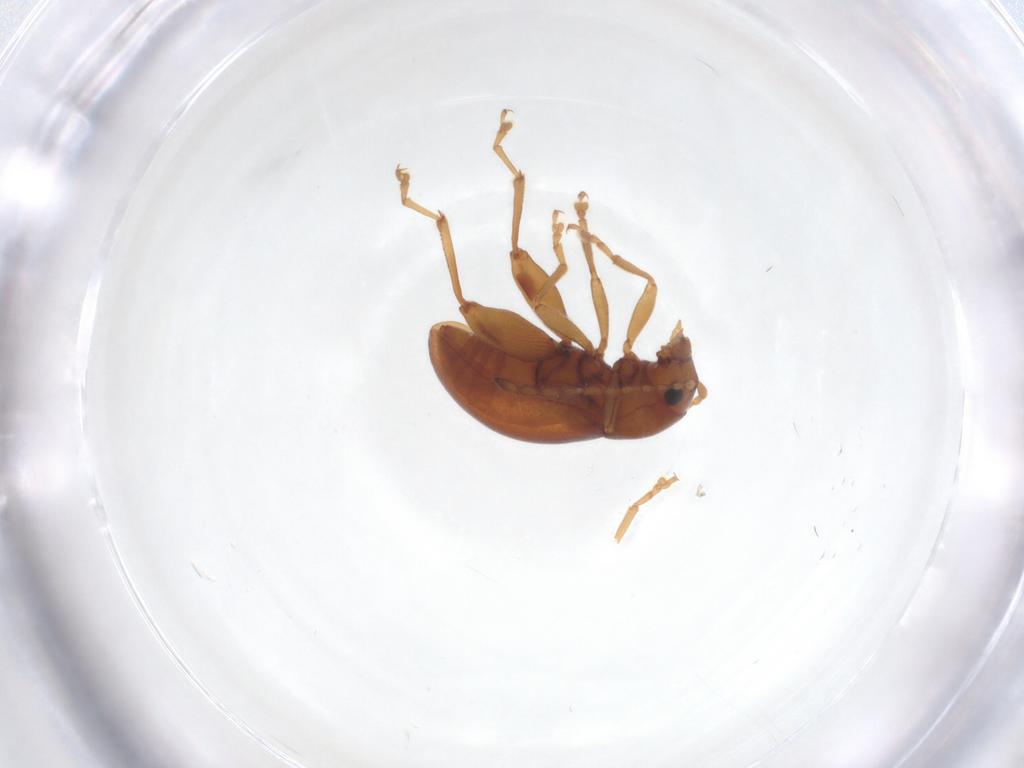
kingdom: Animalia
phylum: Arthropoda
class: Insecta
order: Coleoptera
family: Chrysomelidae
